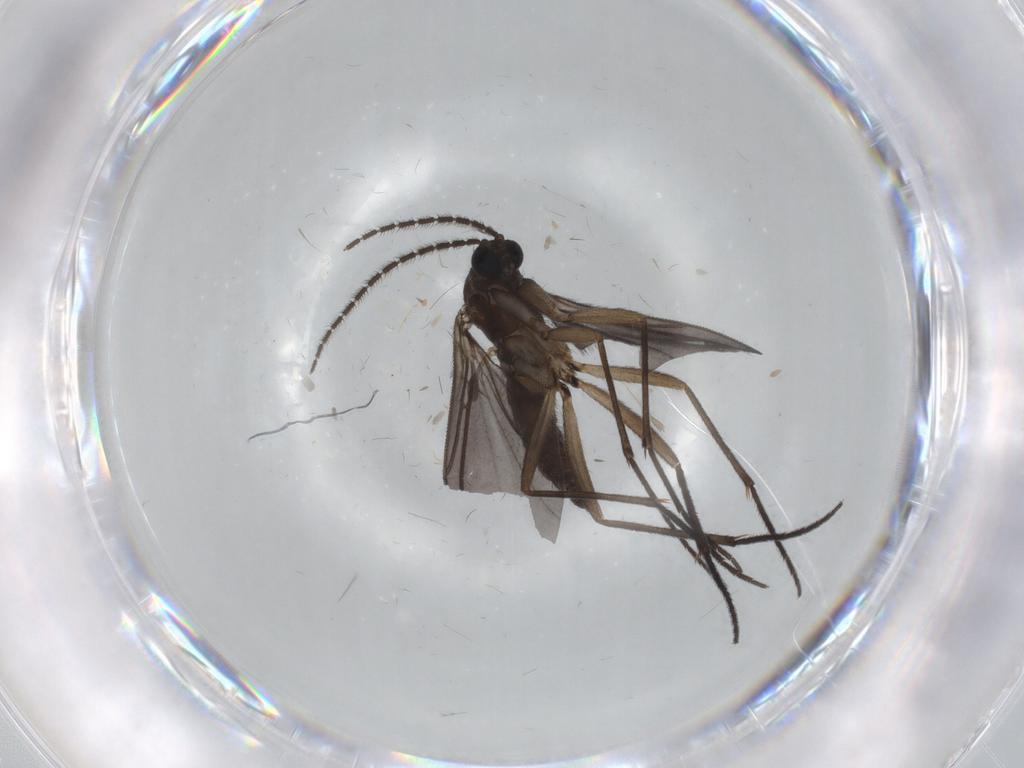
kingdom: Animalia
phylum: Arthropoda
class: Insecta
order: Diptera
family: Sciaridae
